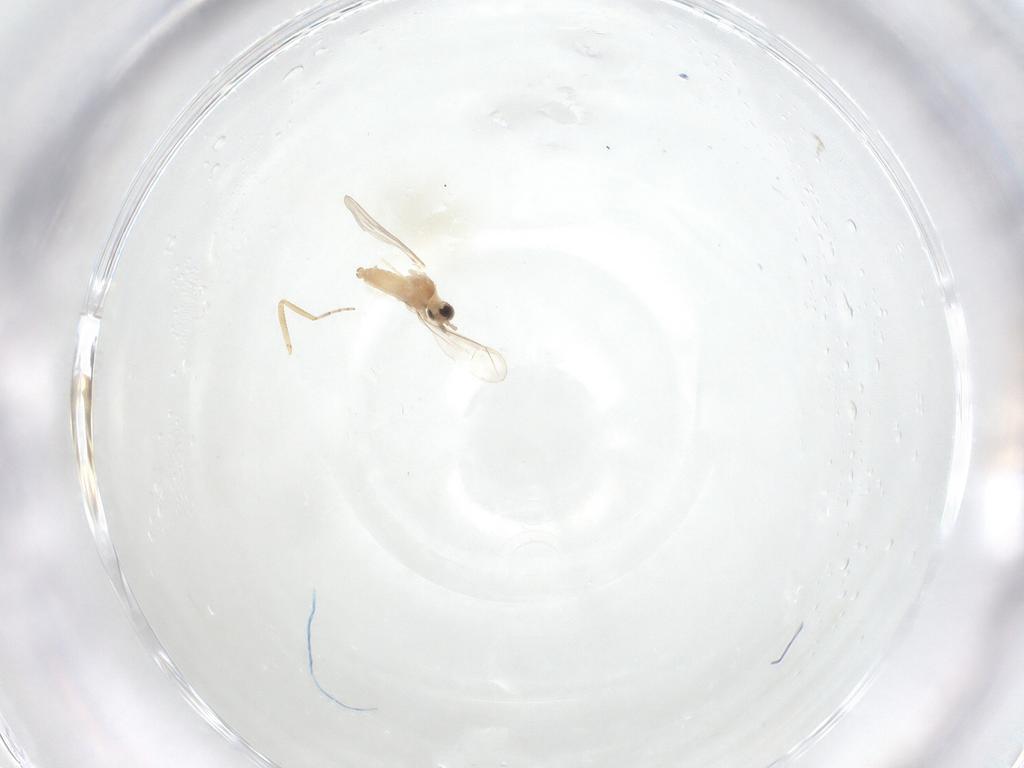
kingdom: Animalia
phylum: Arthropoda
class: Insecta
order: Diptera
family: Cecidomyiidae
